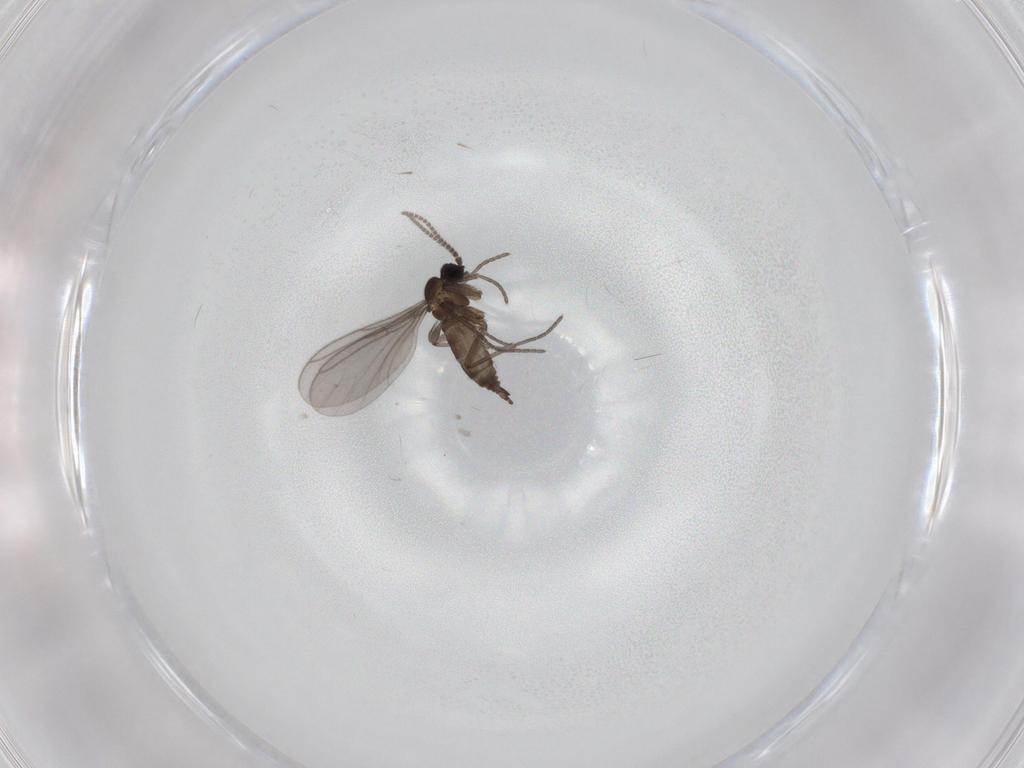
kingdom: Animalia
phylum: Arthropoda
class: Insecta
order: Diptera
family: Sciaridae
